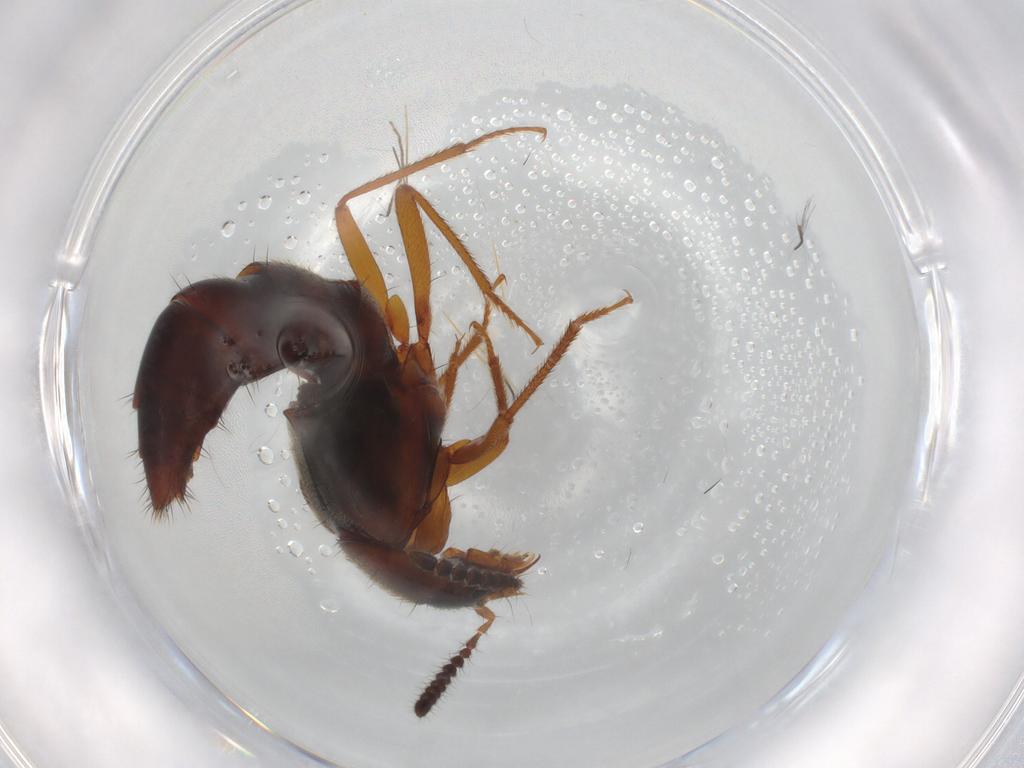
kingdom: Animalia
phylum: Arthropoda
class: Insecta
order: Coleoptera
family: Staphylinidae
